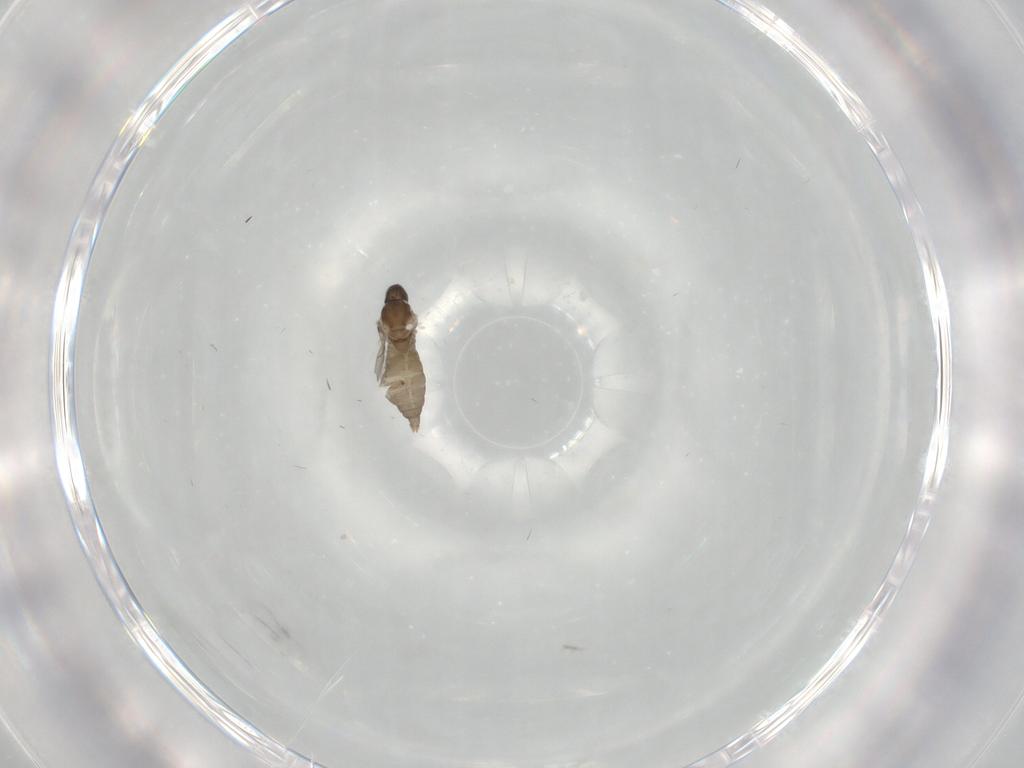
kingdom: Animalia
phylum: Arthropoda
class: Insecta
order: Diptera
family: Cecidomyiidae
